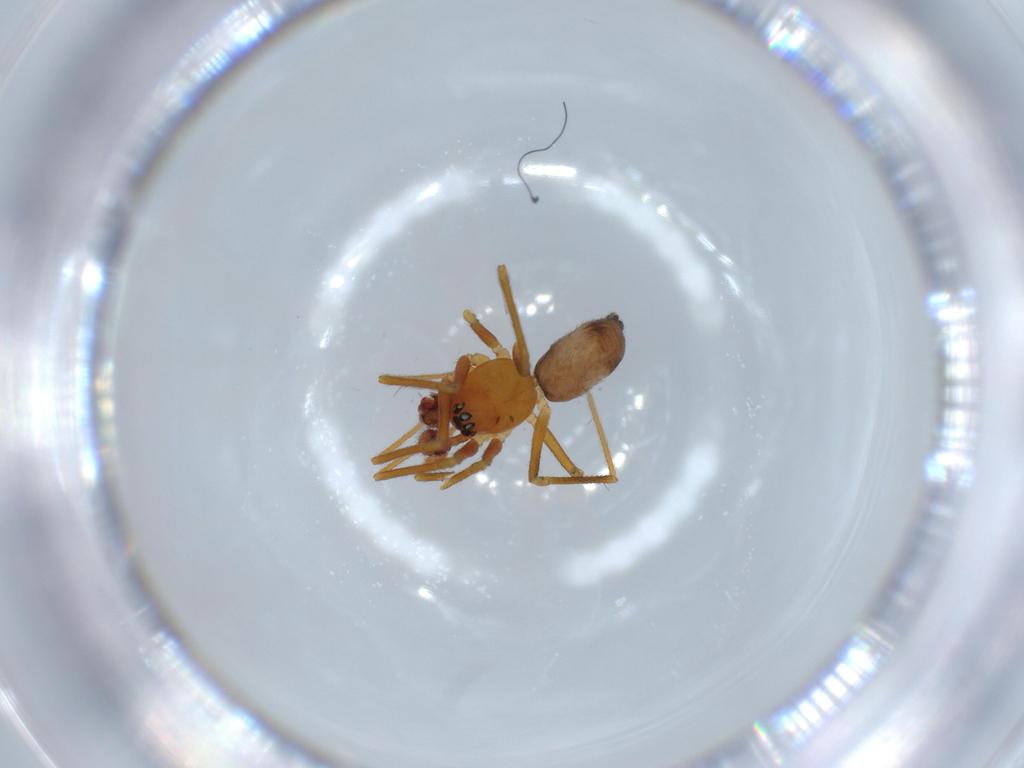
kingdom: Animalia
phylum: Arthropoda
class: Arachnida
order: Araneae
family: Linyphiidae
